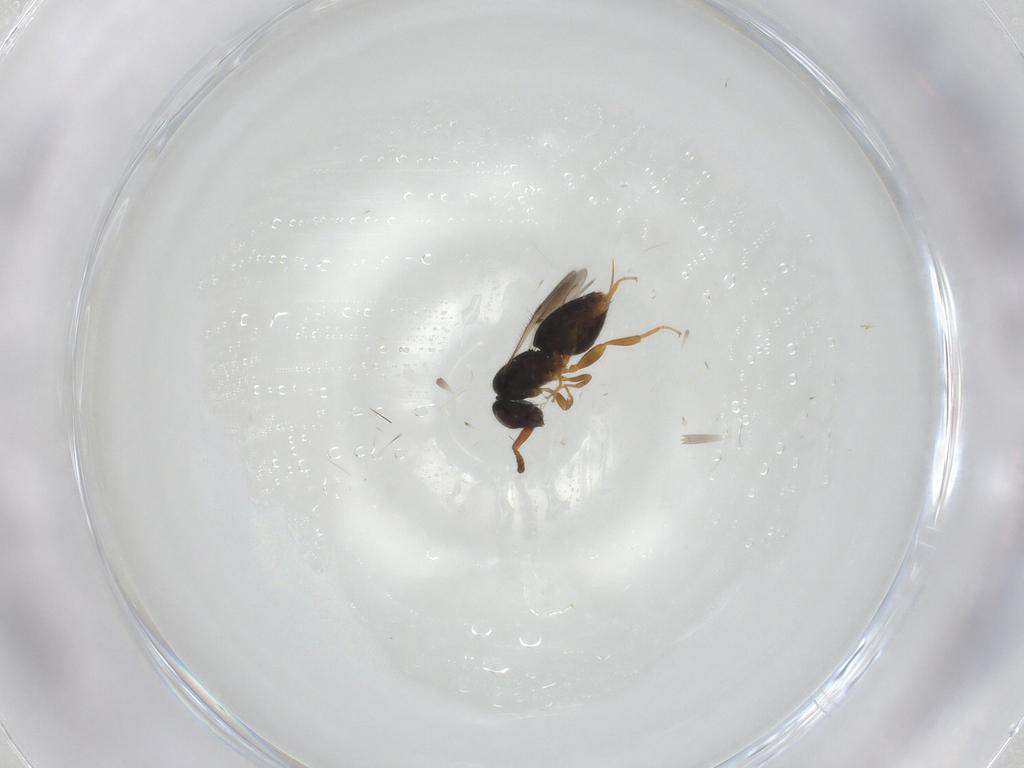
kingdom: Animalia
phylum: Arthropoda
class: Insecta
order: Hymenoptera
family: Ceraphronidae
